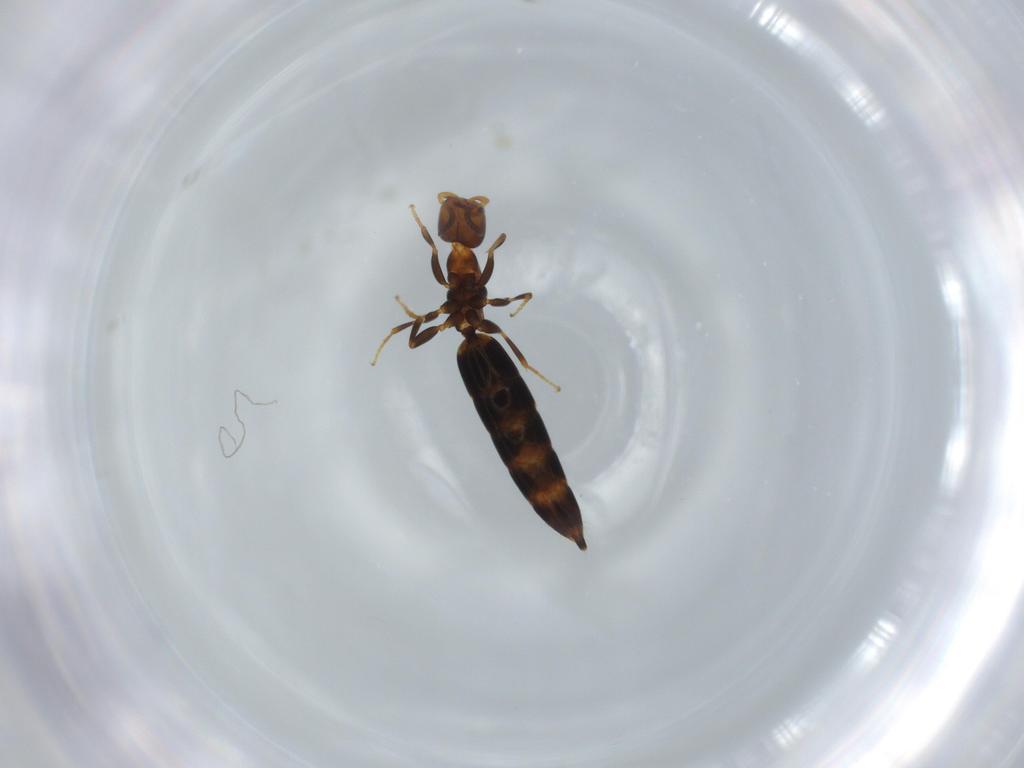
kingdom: Animalia
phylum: Arthropoda
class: Insecta
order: Hymenoptera
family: Bethylidae
